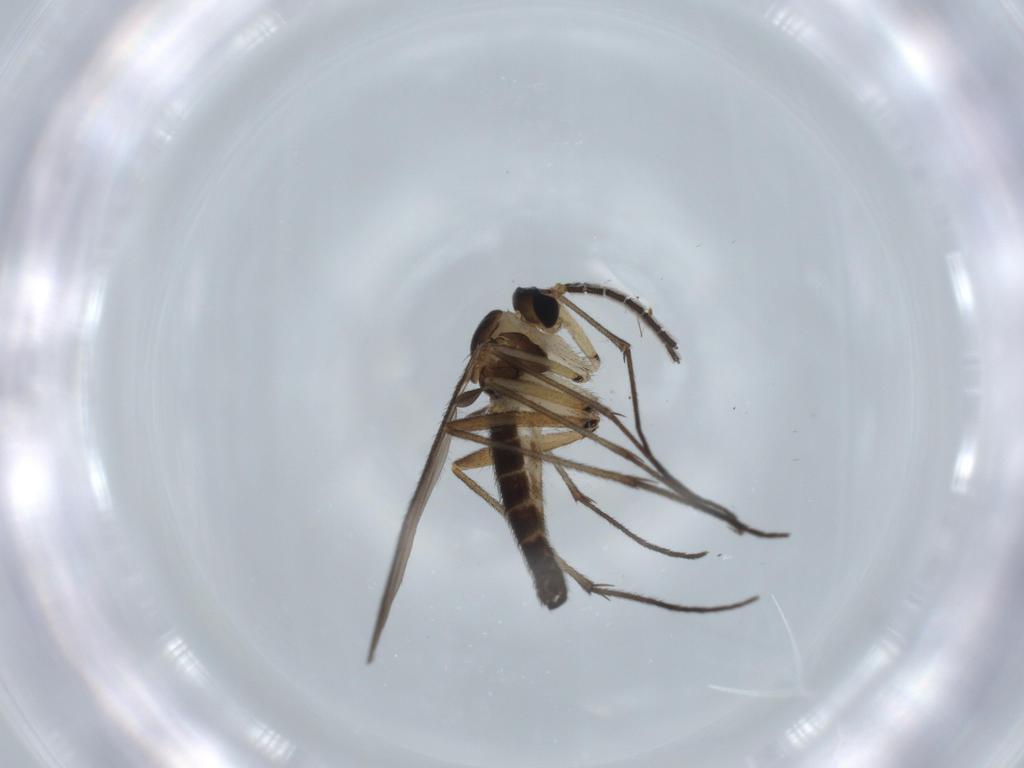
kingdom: Animalia
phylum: Arthropoda
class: Insecta
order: Diptera
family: Sciaridae
